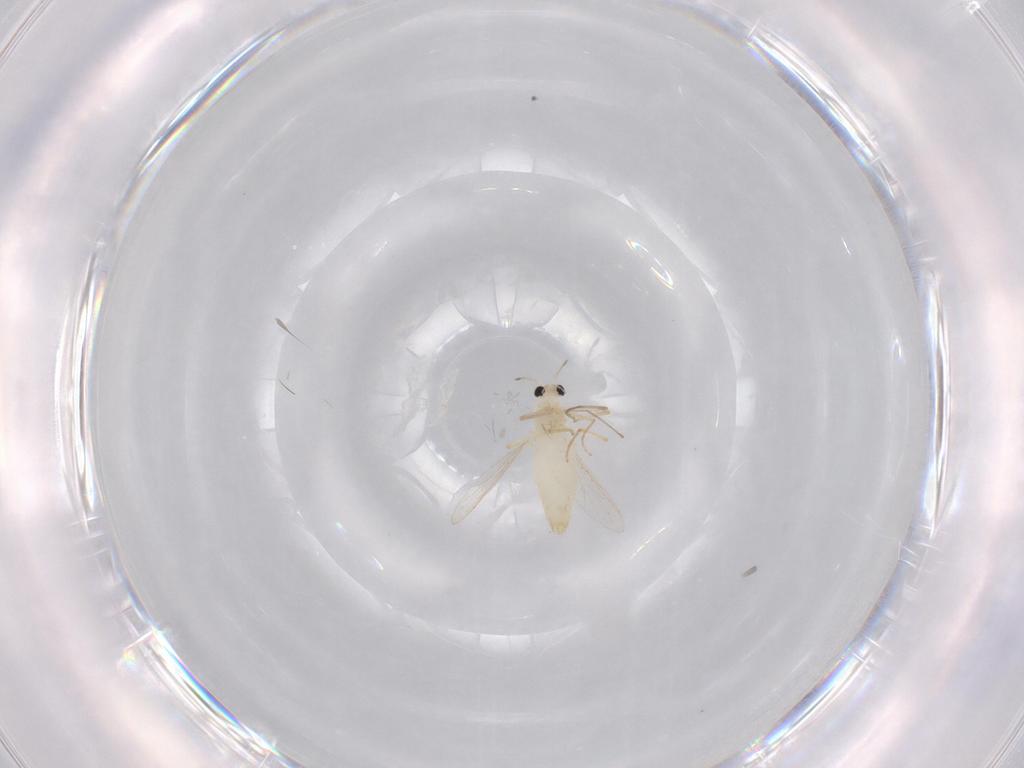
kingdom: Animalia
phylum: Arthropoda
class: Insecta
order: Diptera
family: Chironomidae
